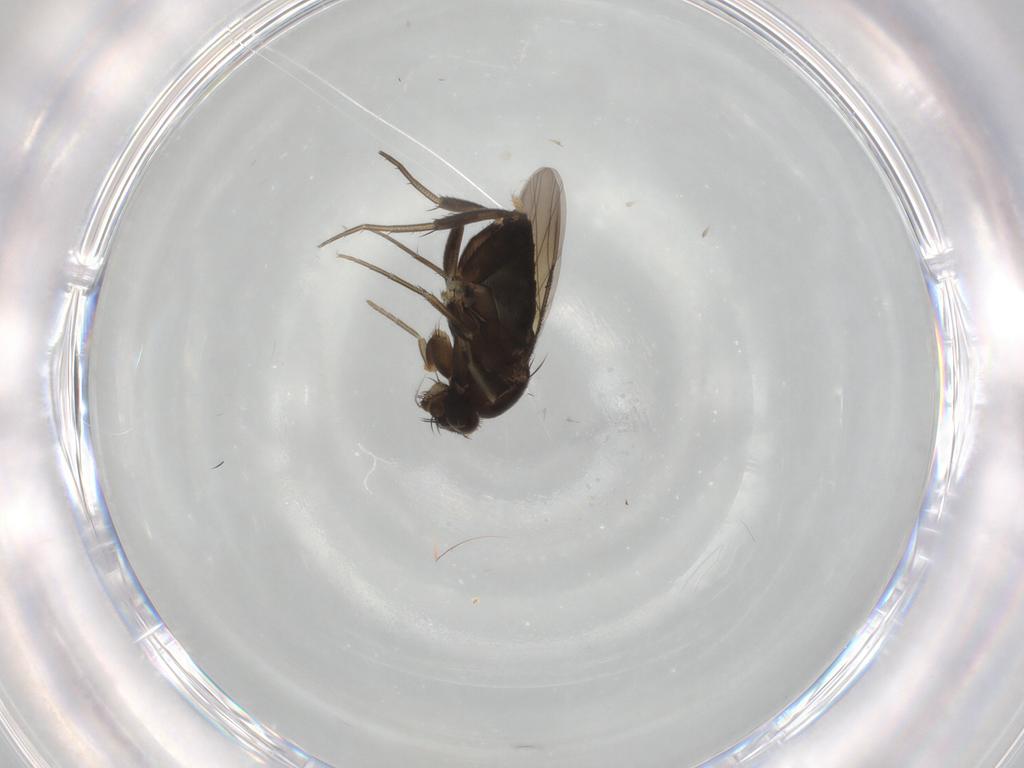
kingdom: Animalia
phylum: Arthropoda
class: Insecta
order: Diptera
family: Phoridae
